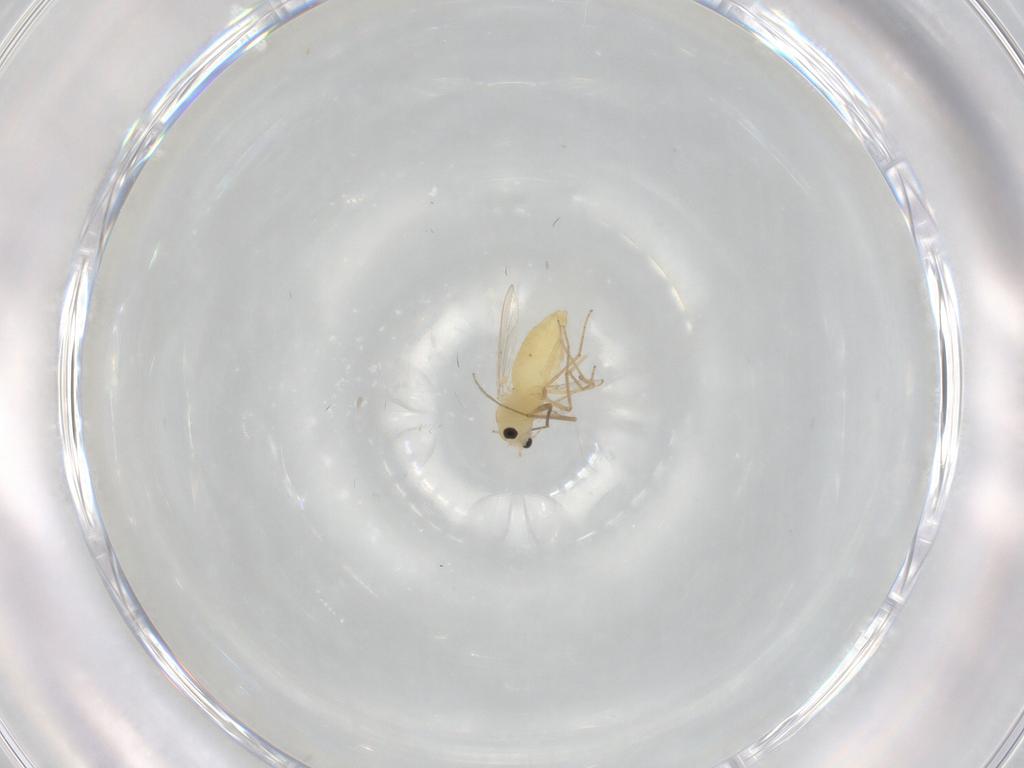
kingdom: Animalia
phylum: Arthropoda
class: Insecta
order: Diptera
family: Chironomidae
